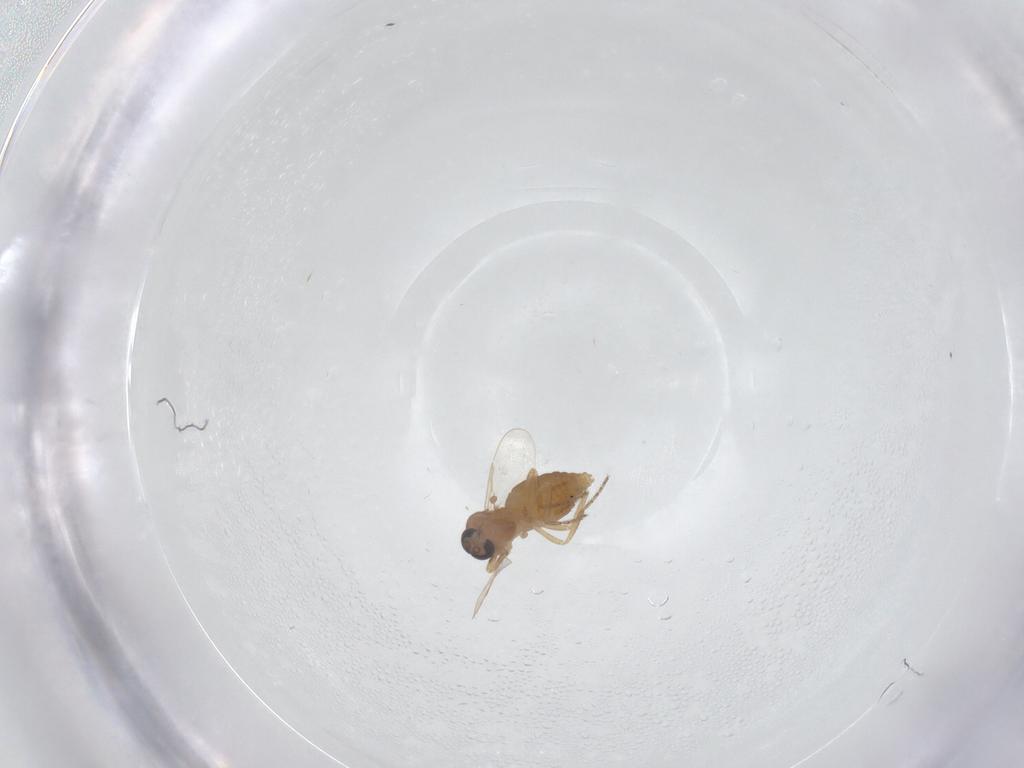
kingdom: Animalia
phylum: Arthropoda
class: Insecta
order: Diptera
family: Ceratopogonidae
